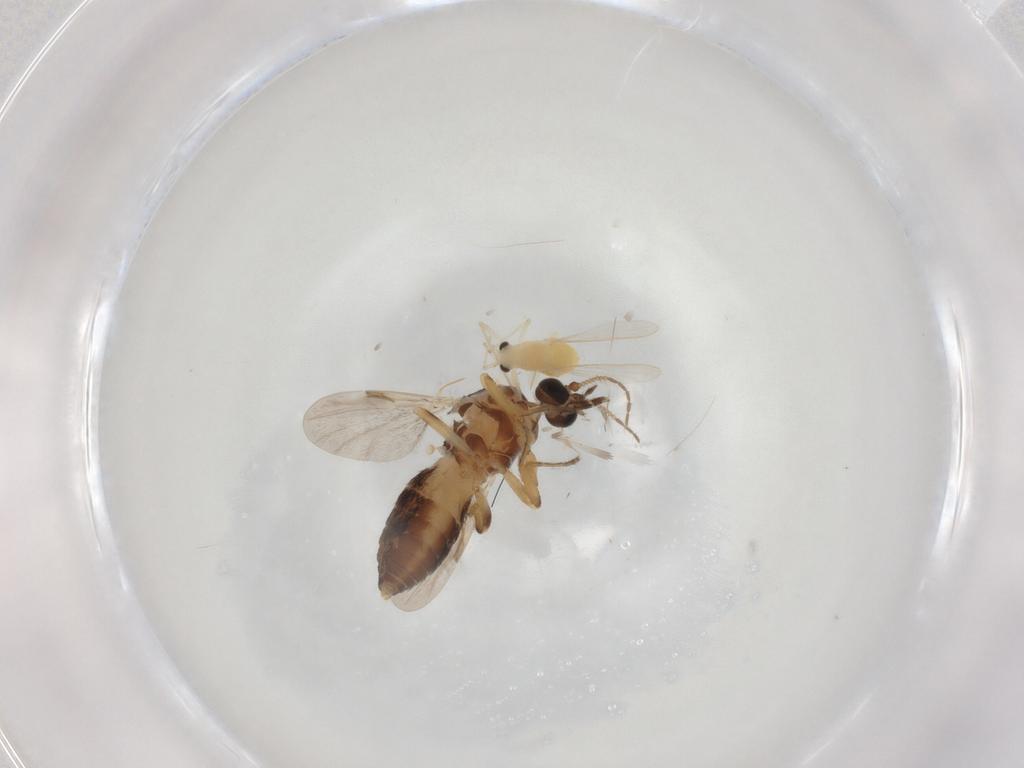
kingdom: Animalia
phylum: Arthropoda
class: Insecta
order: Diptera
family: Ceratopogonidae
